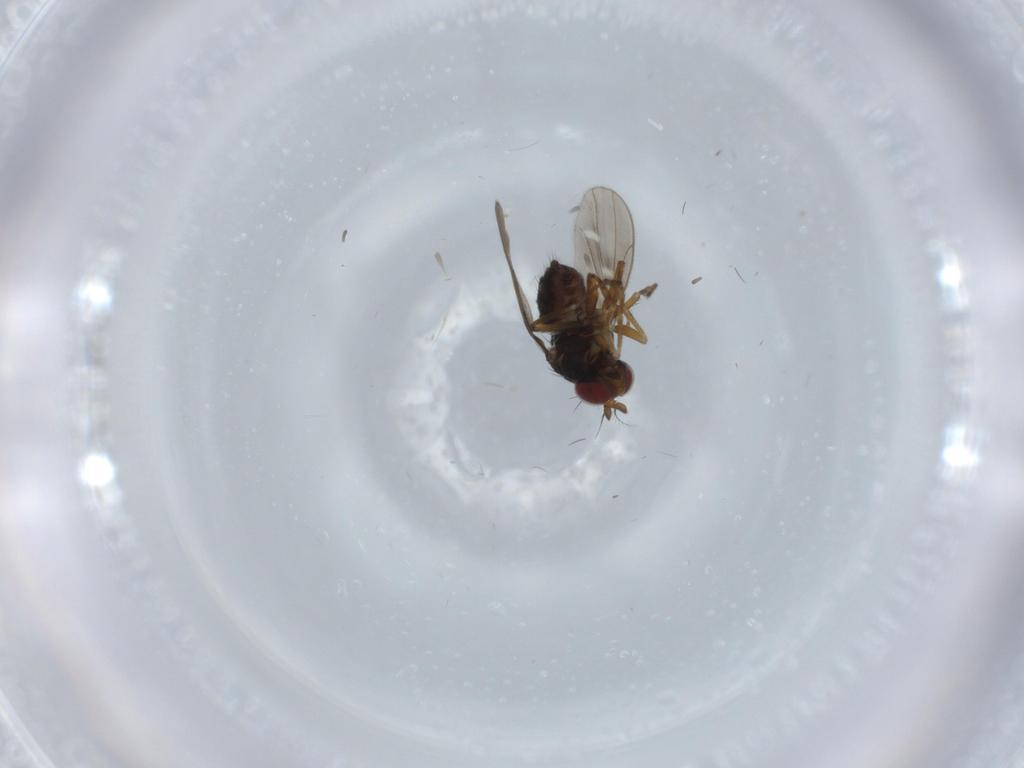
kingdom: Animalia
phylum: Arthropoda
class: Insecta
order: Diptera
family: Ephydridae
